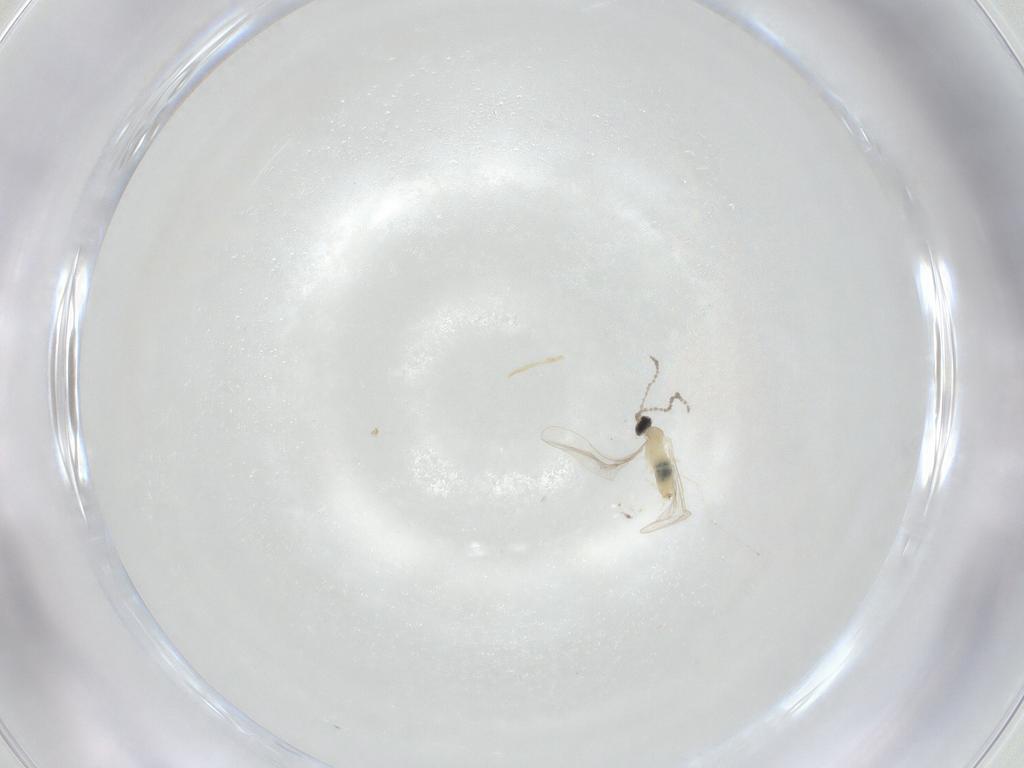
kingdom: Animalia
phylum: Arthropoda
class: Insecta
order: Diptera
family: Cecidomyiidae
